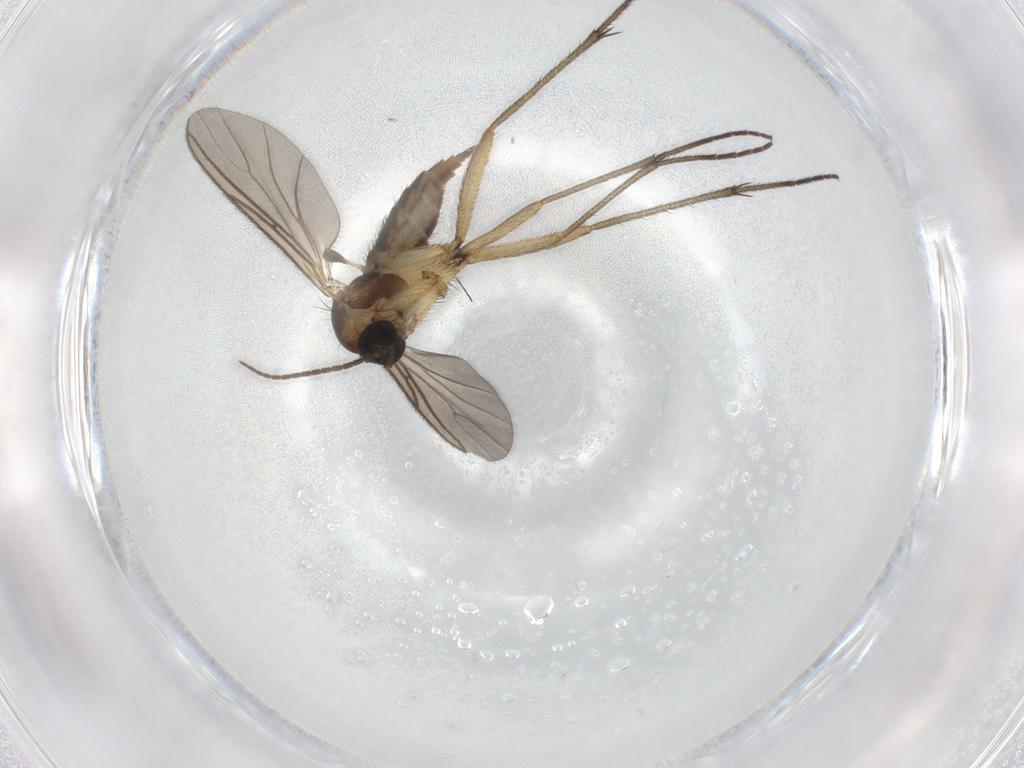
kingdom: Animalia
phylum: Arthropoda
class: Insecta
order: Diptera
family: Sciaridae
